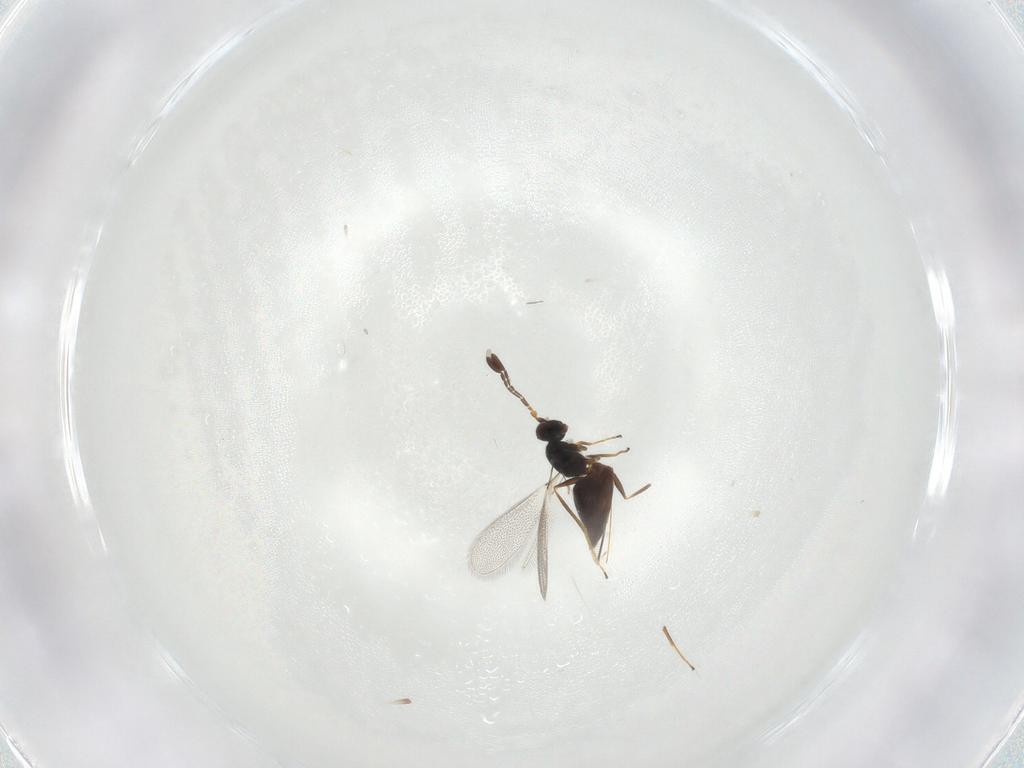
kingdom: Animalia
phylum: Arthropoda
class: Insecta
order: Hymenoptera
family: Mymaridae
